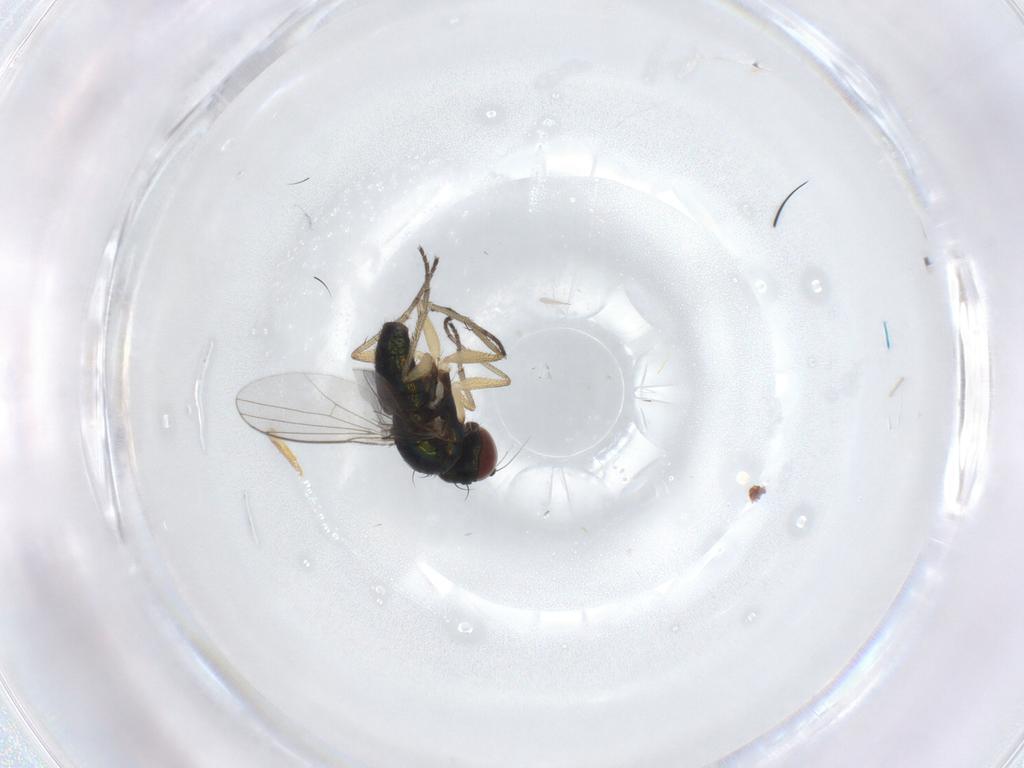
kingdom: Animalia
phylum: Arthropoda
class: Insecta
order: Diptera
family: Dolichopodidae
